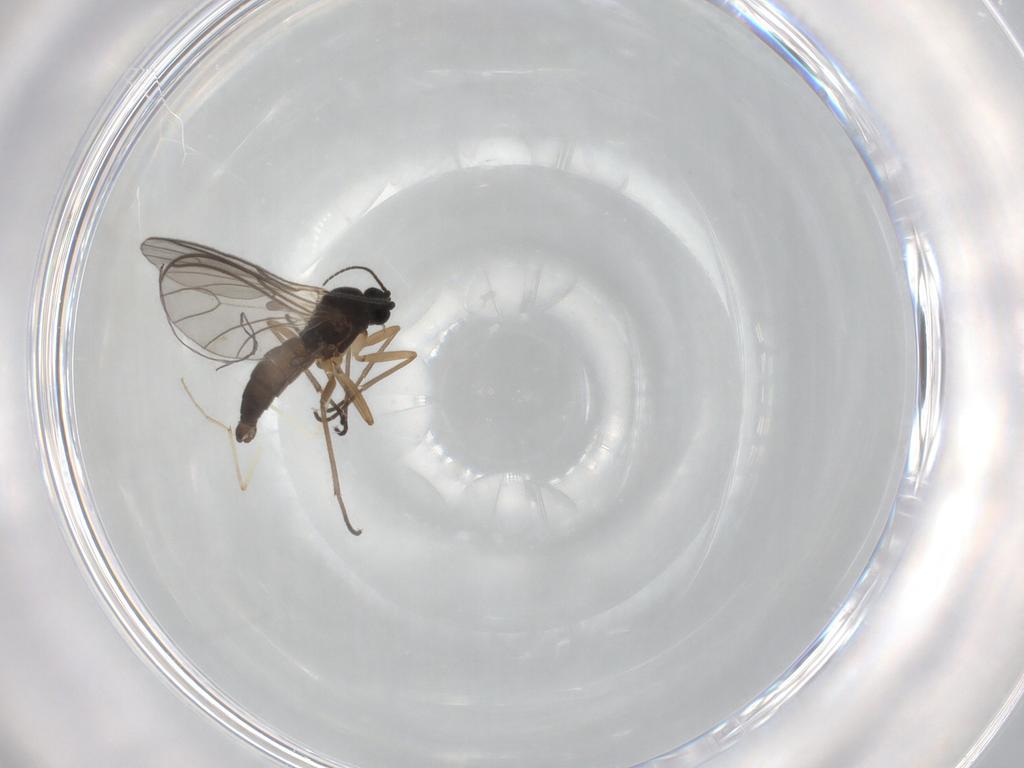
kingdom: Animalia
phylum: Arthropoda
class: Insecta
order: Diptera
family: Sciaridae
